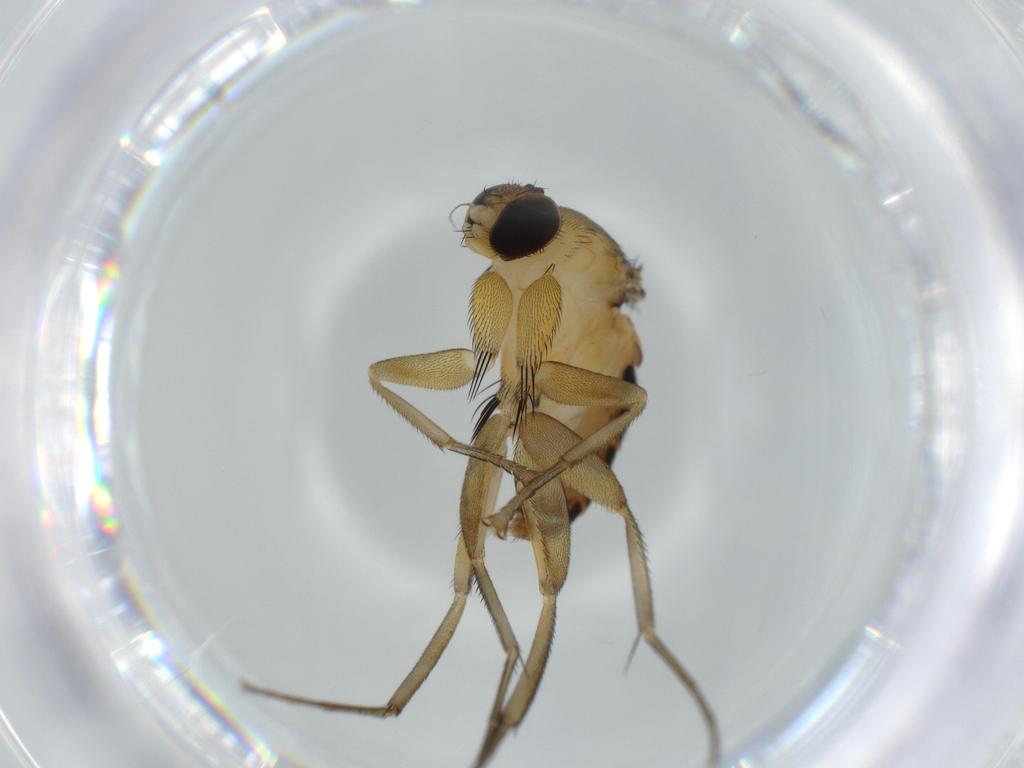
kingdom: Animalia
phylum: Arthropoda
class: Insecta
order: Diptera
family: Phoridae
